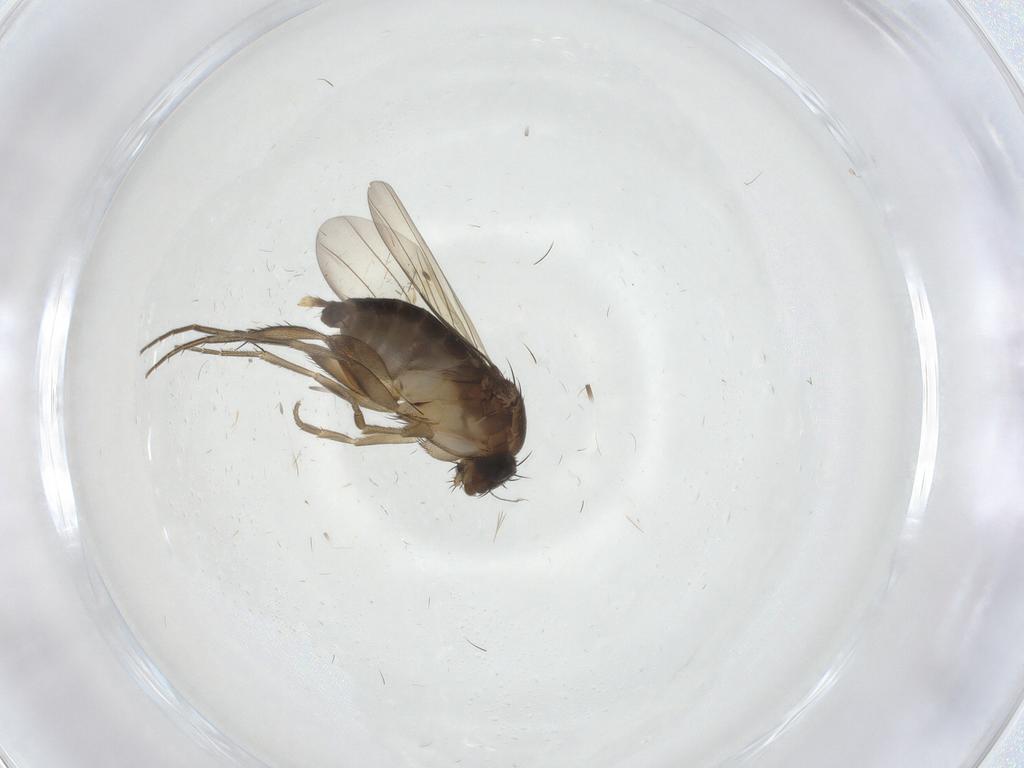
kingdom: Animalia
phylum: Arthropoda
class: Insecta
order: Diptera
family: Phoridae
